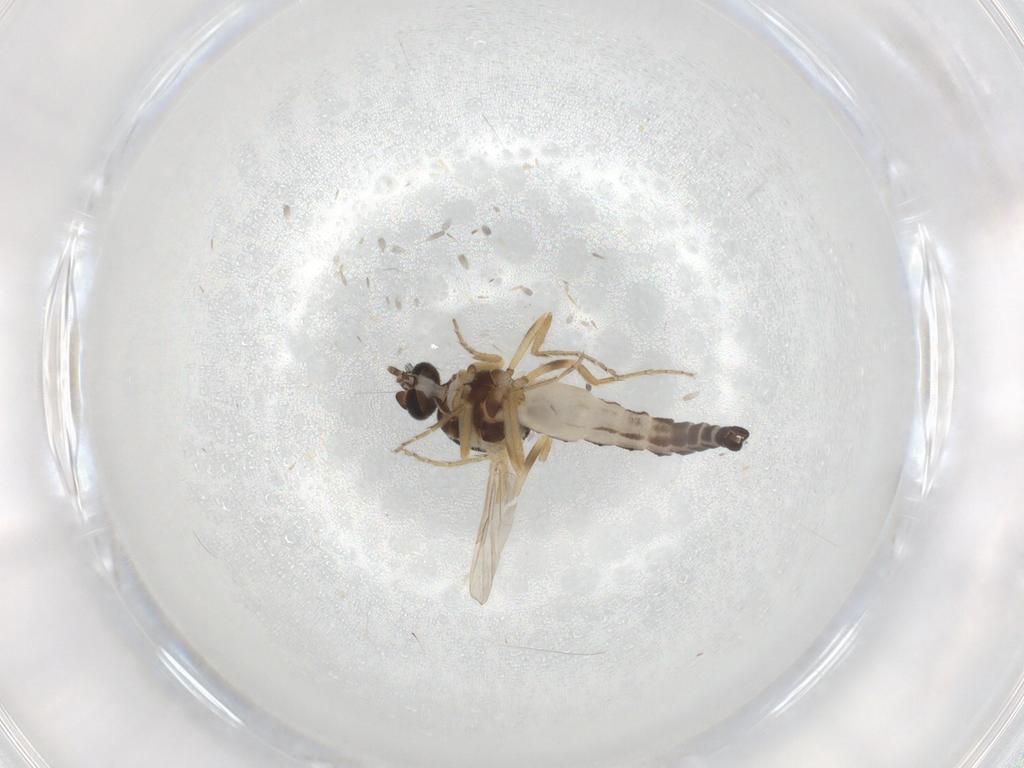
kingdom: Animalia
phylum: Arthropoda
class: Insecta
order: Diptera
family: Ceratopogonidae
